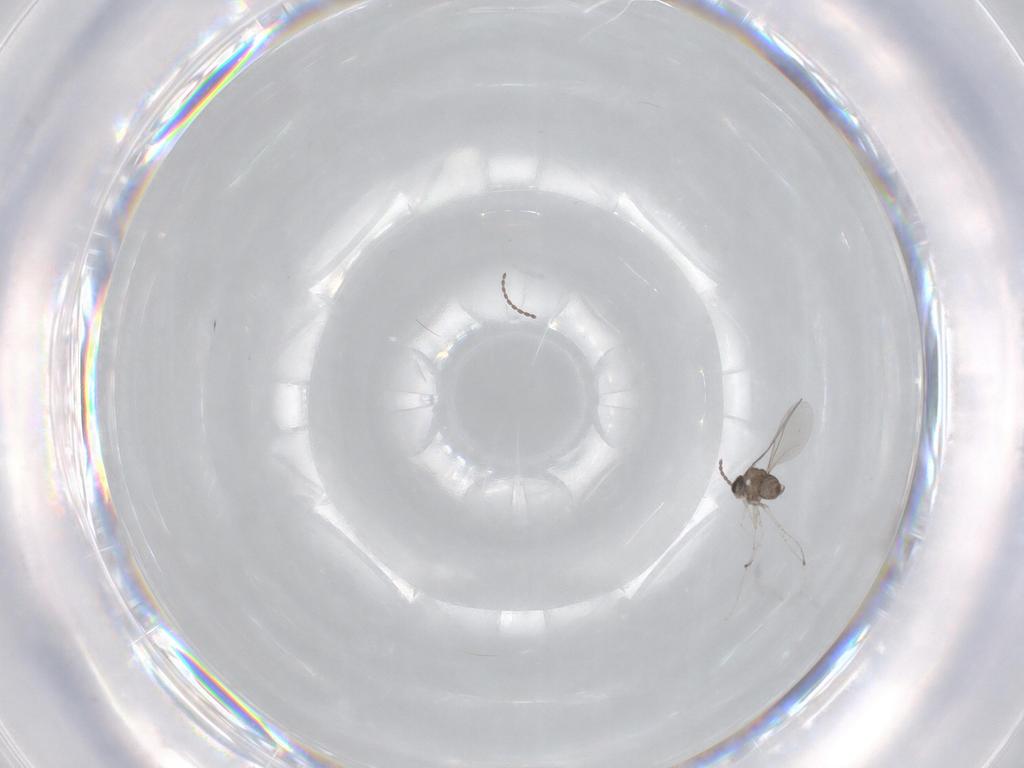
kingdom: Animalia
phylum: Arthropoda
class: Insecta
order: Diptera
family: Cecidomyiidae
